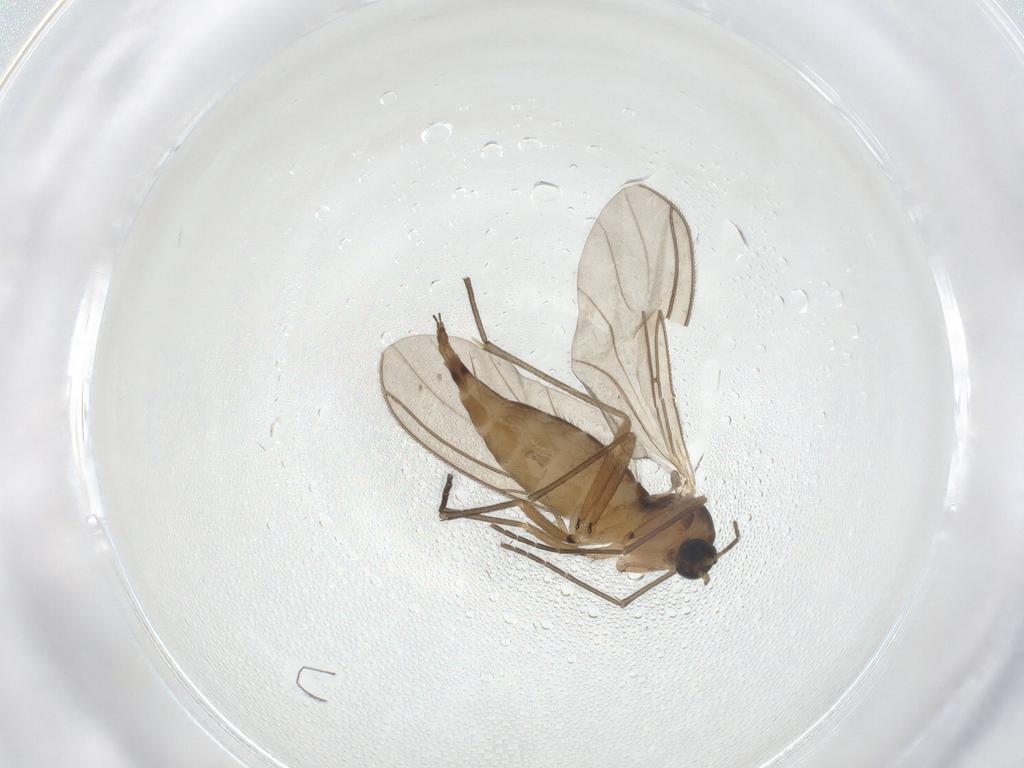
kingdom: Animalia
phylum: Arthropoda
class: Insecta
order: Diptera
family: Sciaridae
